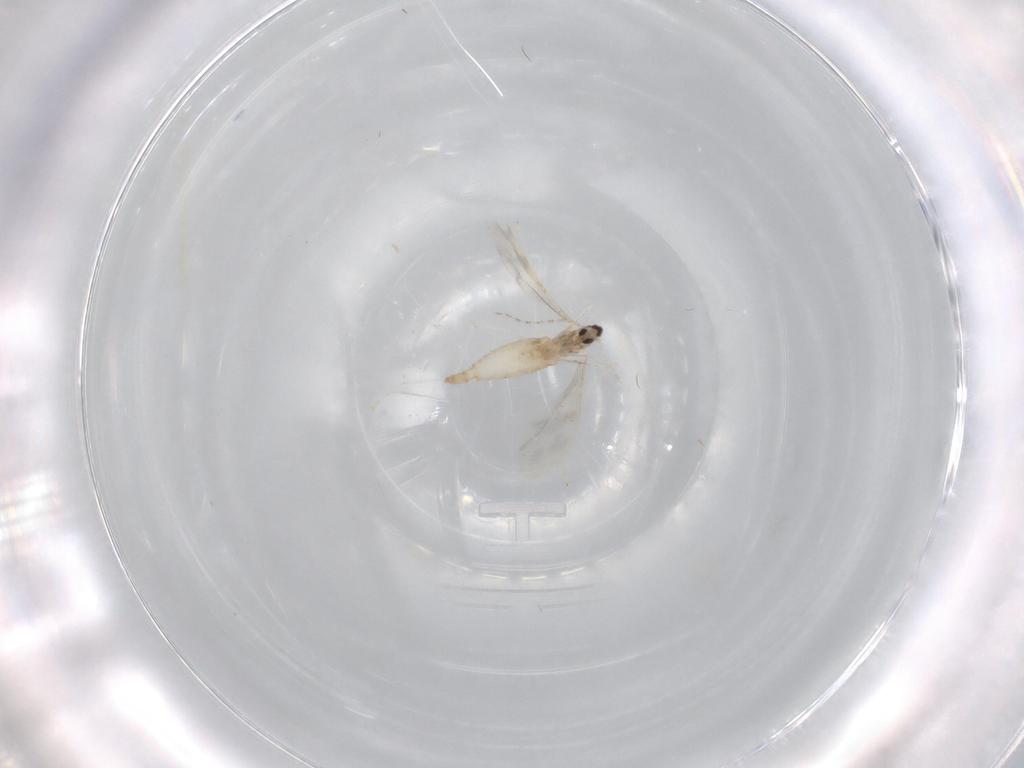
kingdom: Animalia
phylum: Arthropoda
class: Insecta
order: Diptera
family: Cecidomyiidae
